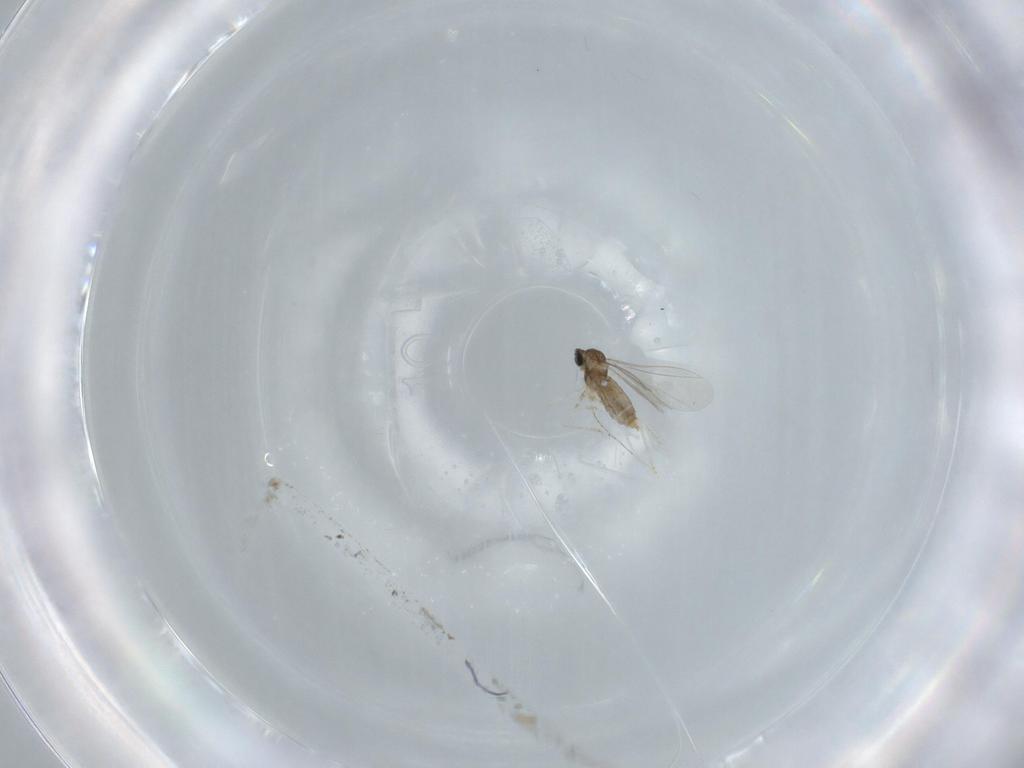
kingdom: Animalia
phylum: Arthropoda
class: Insecta
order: Diptera
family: Cecidomyiidae
